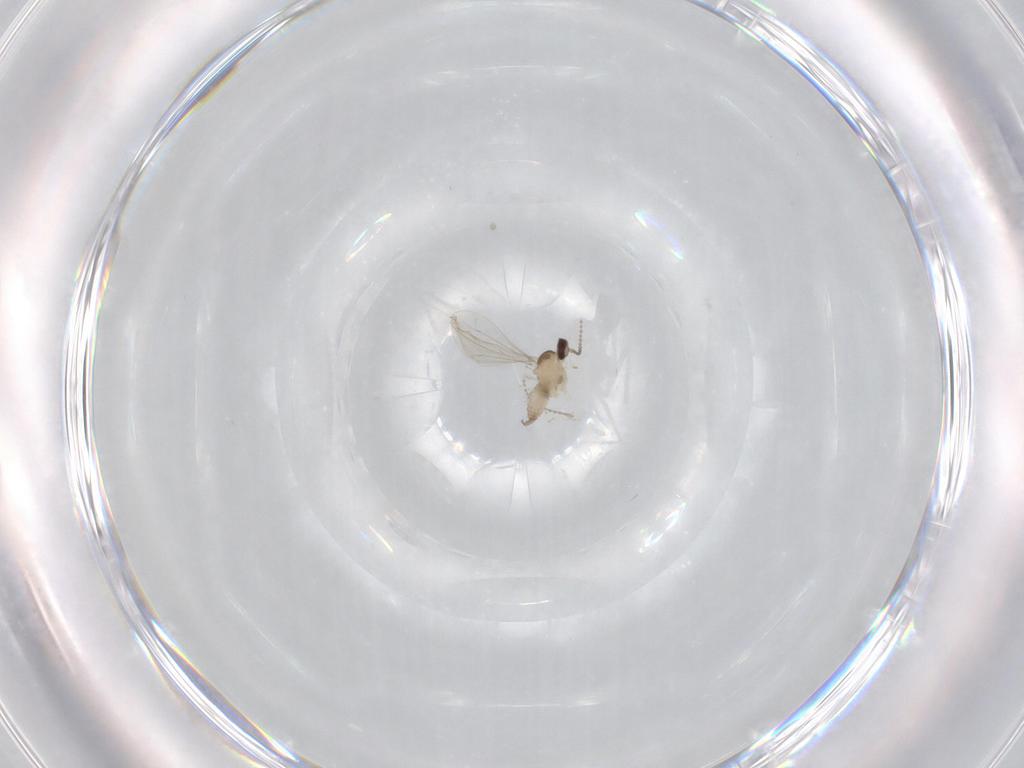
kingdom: Animalia
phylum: Arthropoda
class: Insecta
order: Diptera
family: Cecidomyiidae
